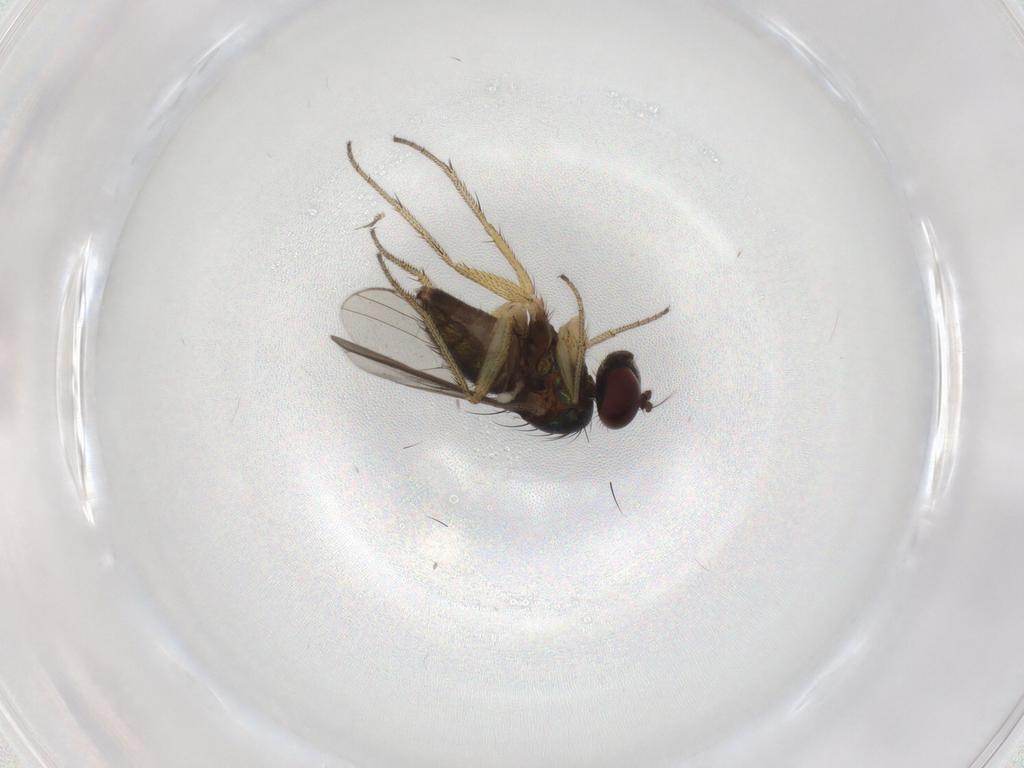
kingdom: Animalia
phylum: Arthropoda
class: Insecta
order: Diptera
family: Dolichopodidae
